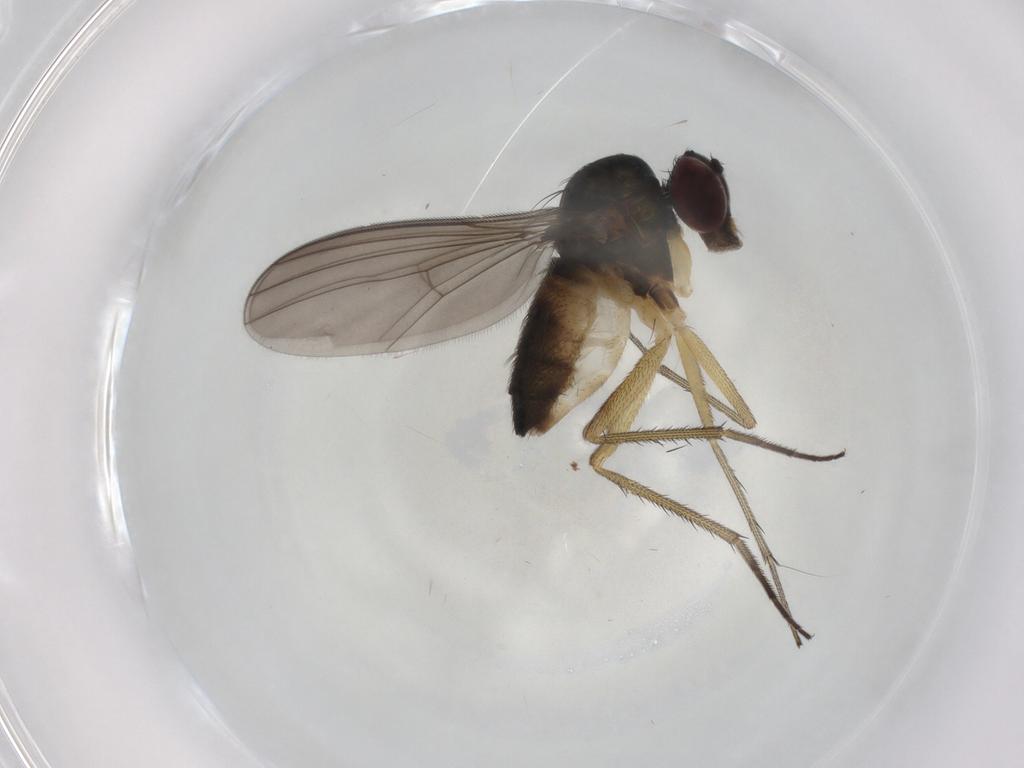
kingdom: Animalia
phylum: Arthropoda
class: Insecta
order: Diptera
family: Dolichopodidae
